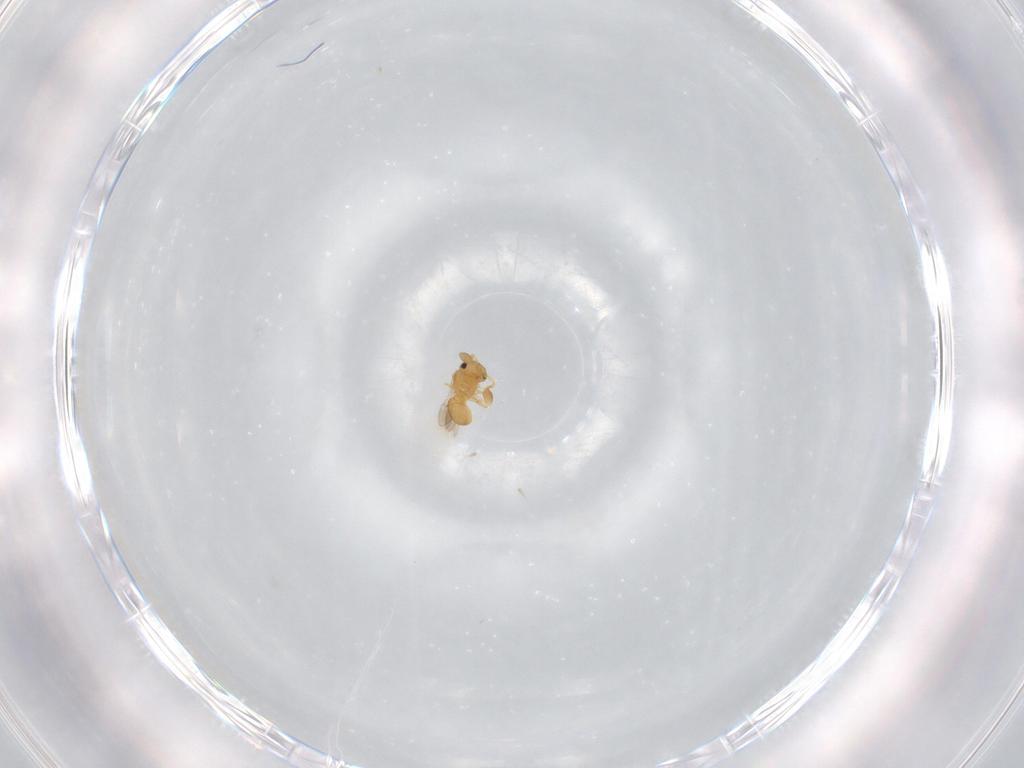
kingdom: Animalia
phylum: Arthropoda
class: Insecta
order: Hymenoptera
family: Scelionidae
